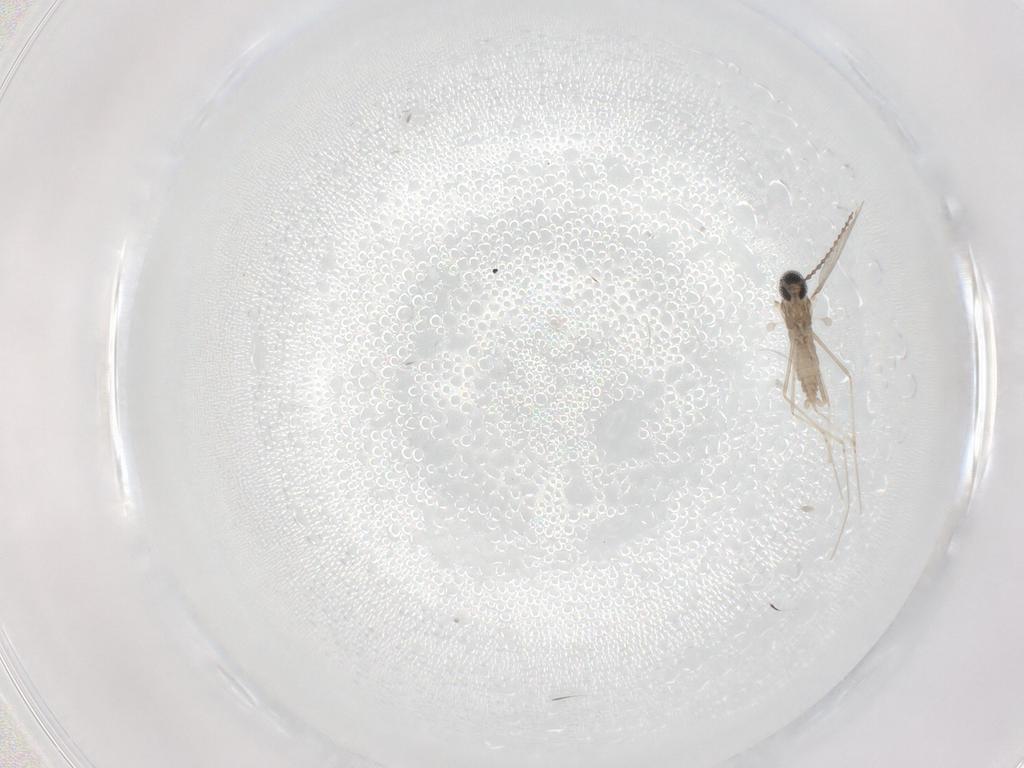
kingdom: Animalia
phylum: Arthropoda
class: Insecta
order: Diptera
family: Cecidomyiidae
